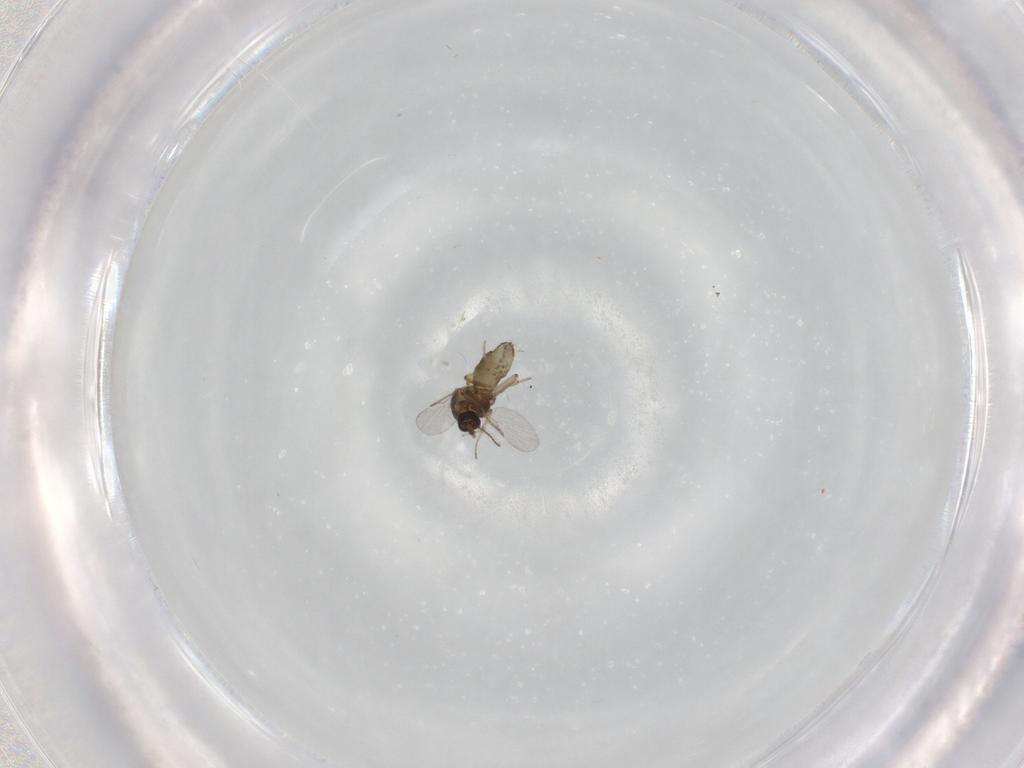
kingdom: Animalia
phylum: Arthropoda
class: Insecta
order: Diptera
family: Ceratopogonidae
